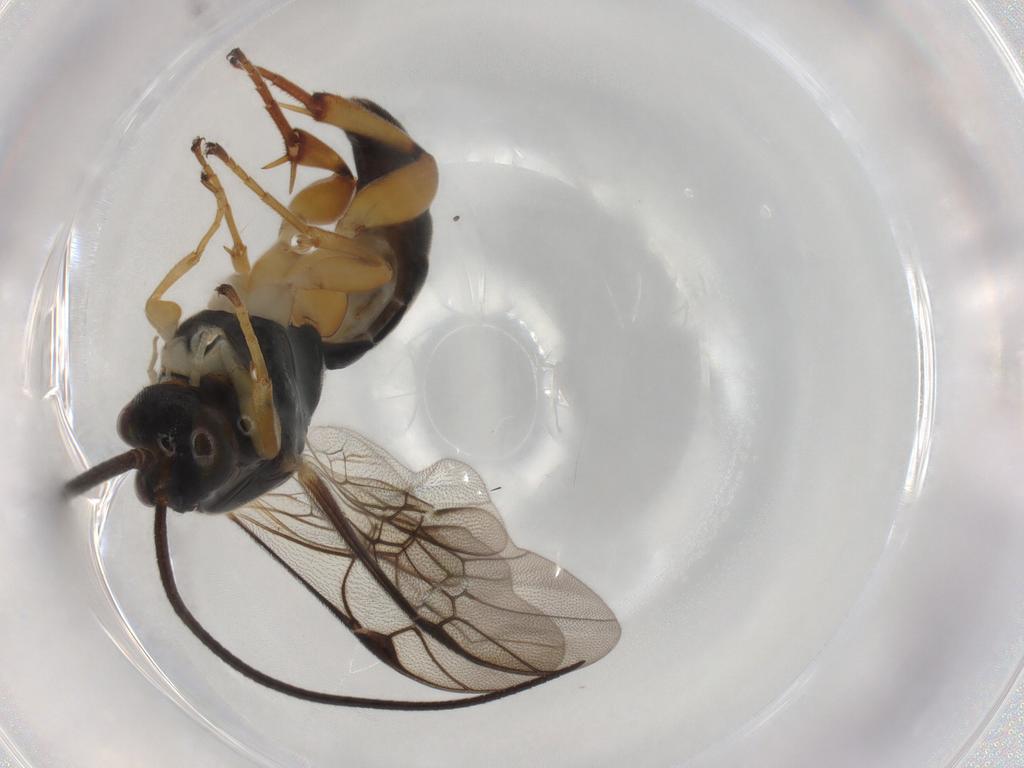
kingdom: Animalia
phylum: Arthropoda
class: Insecta
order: Hymenoptera
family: Ichneumonidae
